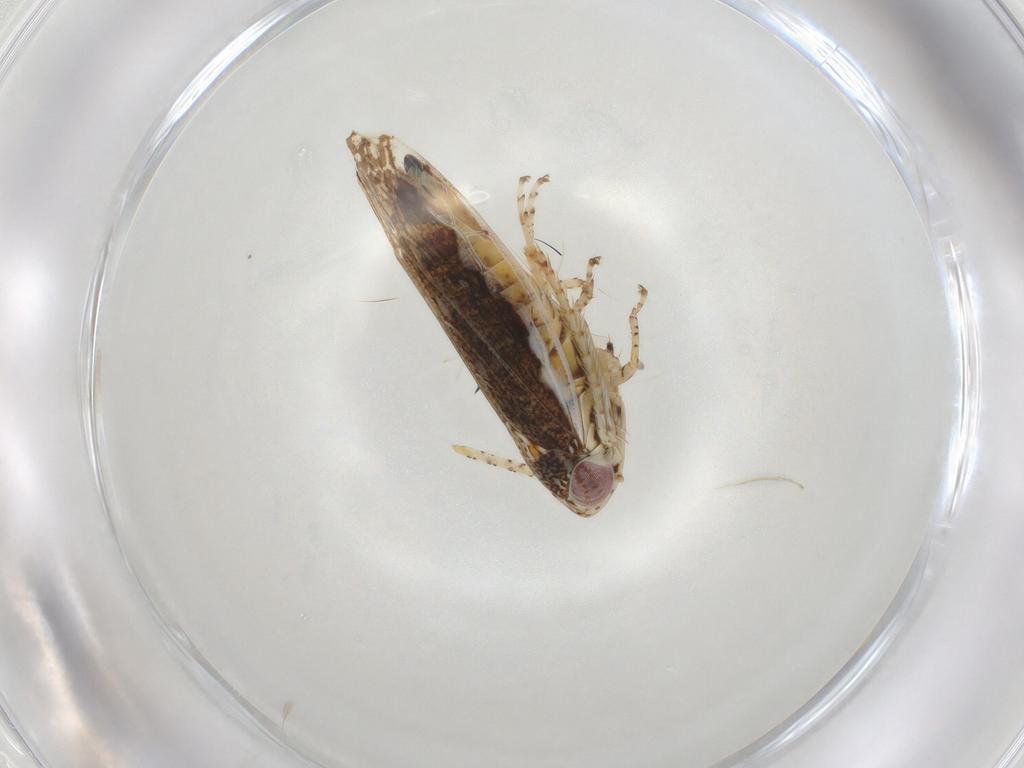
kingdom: Animalia
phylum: Arthropoda
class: Insecta
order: Hemiptera
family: Cicadellidae
